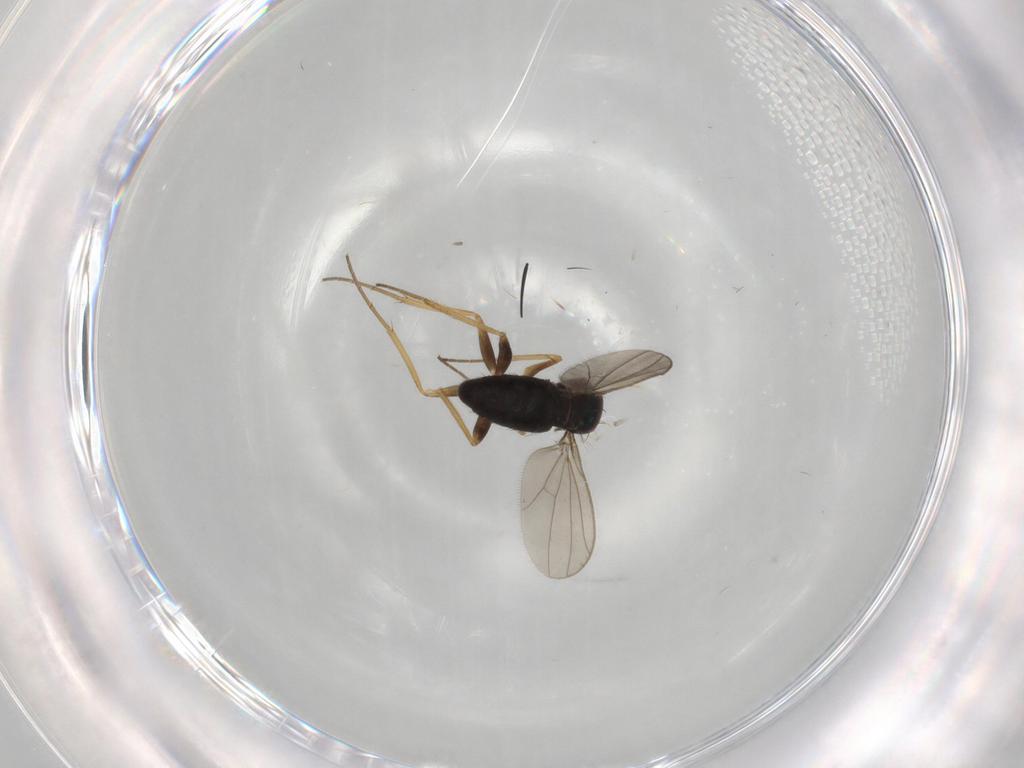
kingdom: Animalia
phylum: Arthropoda
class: Insecta
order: Diptera
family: Dolichopodidae
